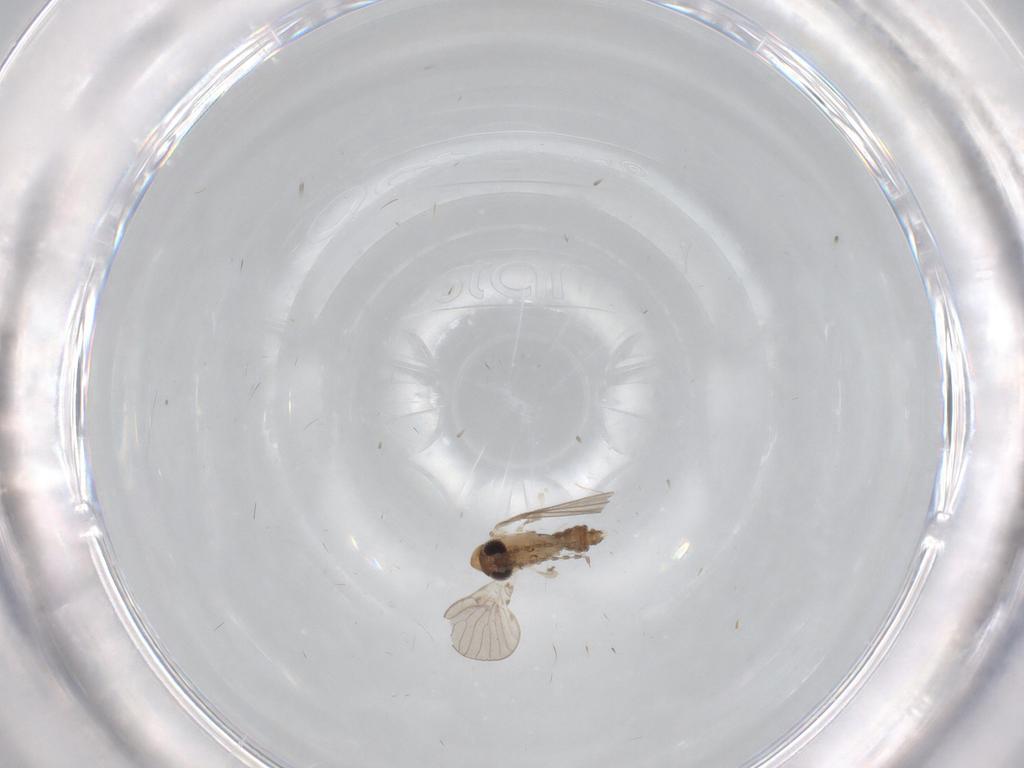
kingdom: Animalia
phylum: Arthropoda
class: Insecta
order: Diptera
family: Psychodidae
